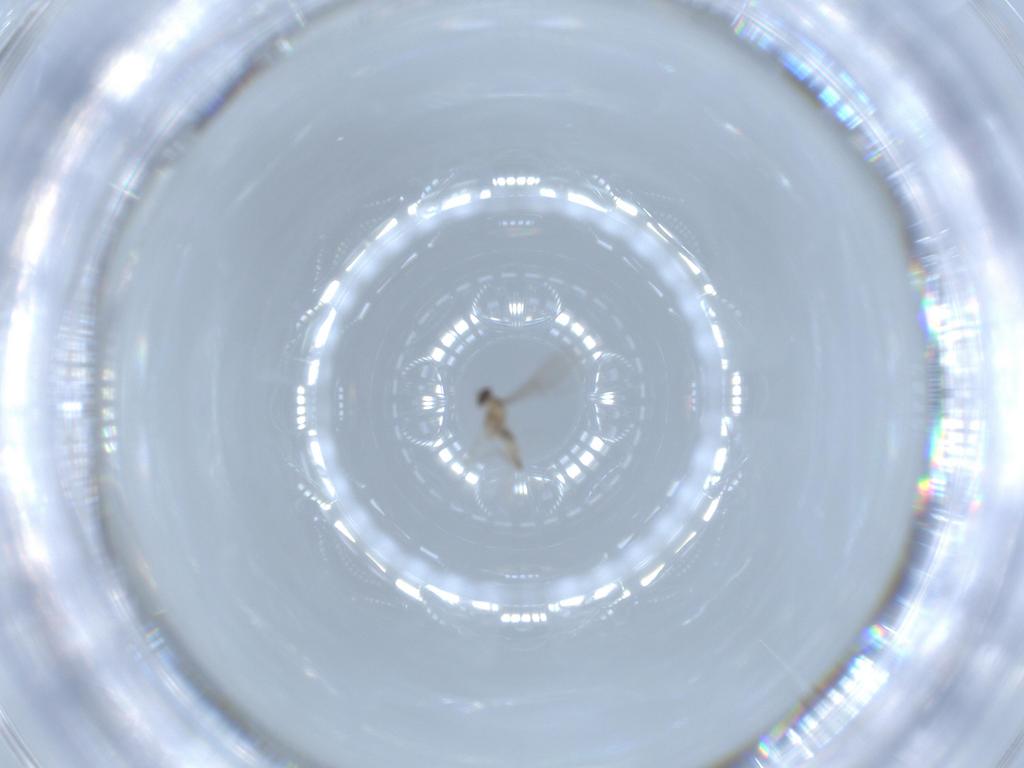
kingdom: Animalia
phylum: Arthropoda
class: Insecta
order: Diptera
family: Cecidomyiidae
